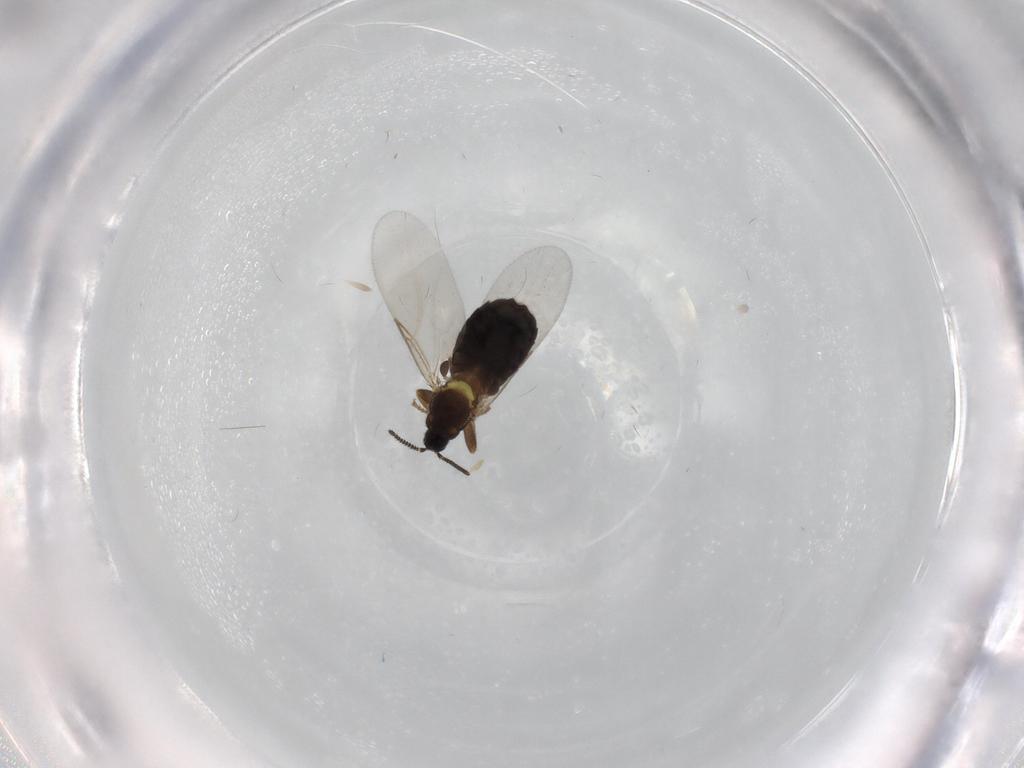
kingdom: Animalia
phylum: Arthropoda
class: Insecta
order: Diptera
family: Scatopsidae
